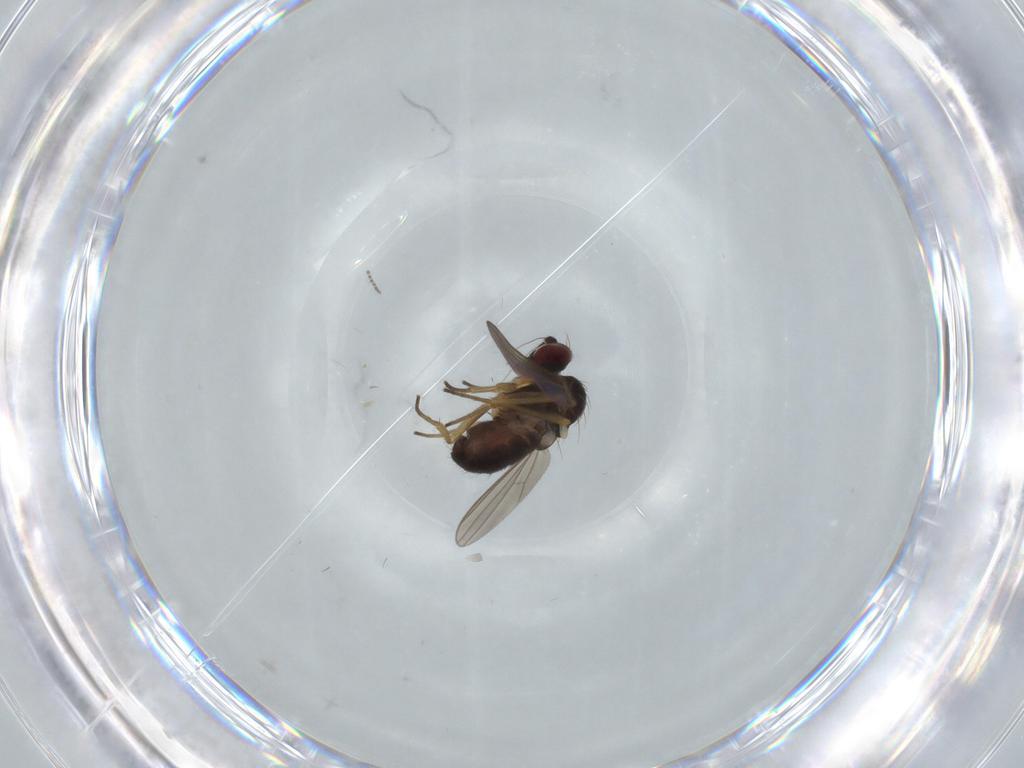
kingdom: Animalia
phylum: Arthropoda
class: Insecta
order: Diptera
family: Dolichopodidae
